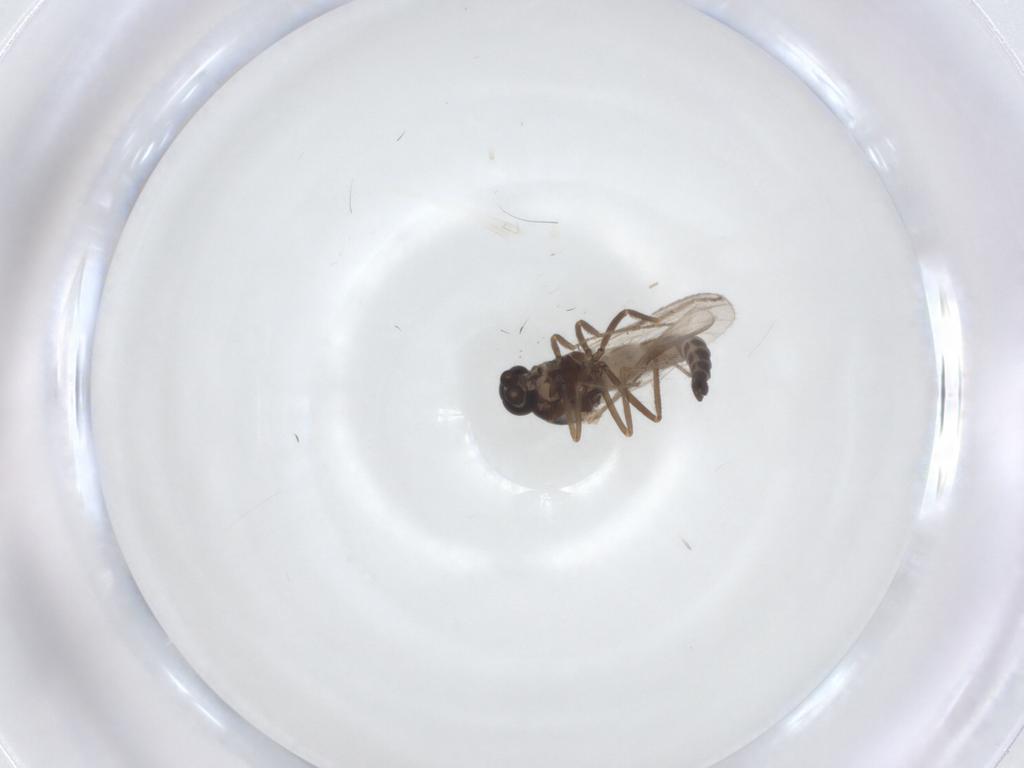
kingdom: Animalia
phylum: Arthropoda
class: Insecta
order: Diptera
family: Ceratopogonidae
